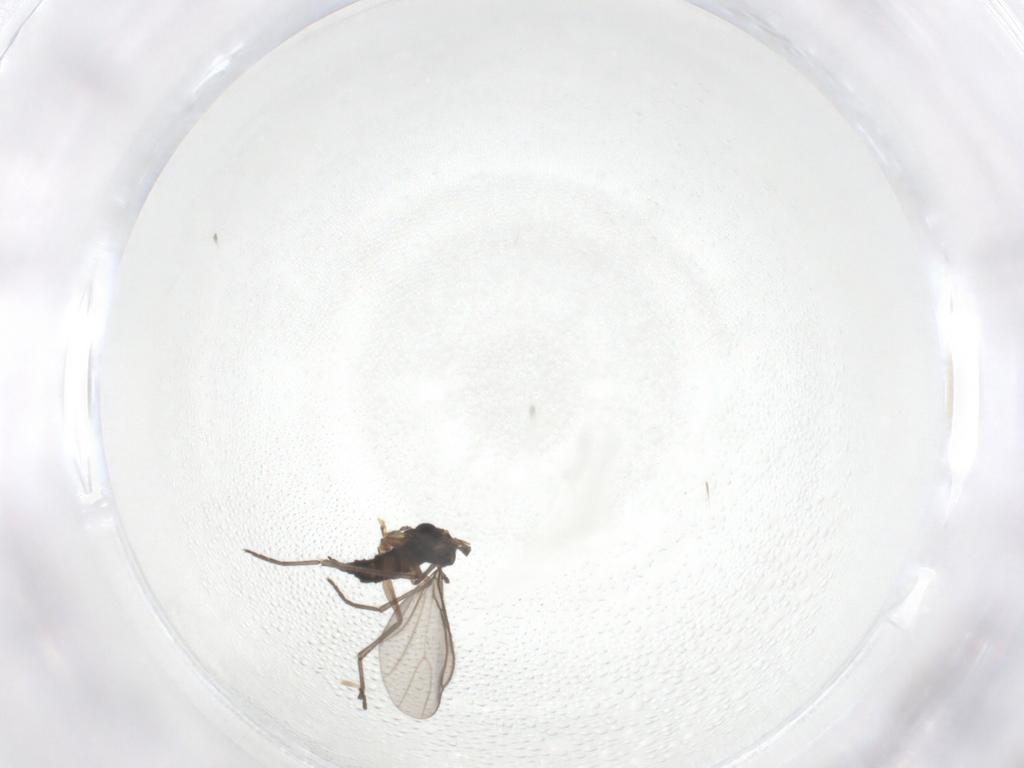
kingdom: Animalia
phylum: Arthropoda
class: Insecta
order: Diptera
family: Sciaridae
